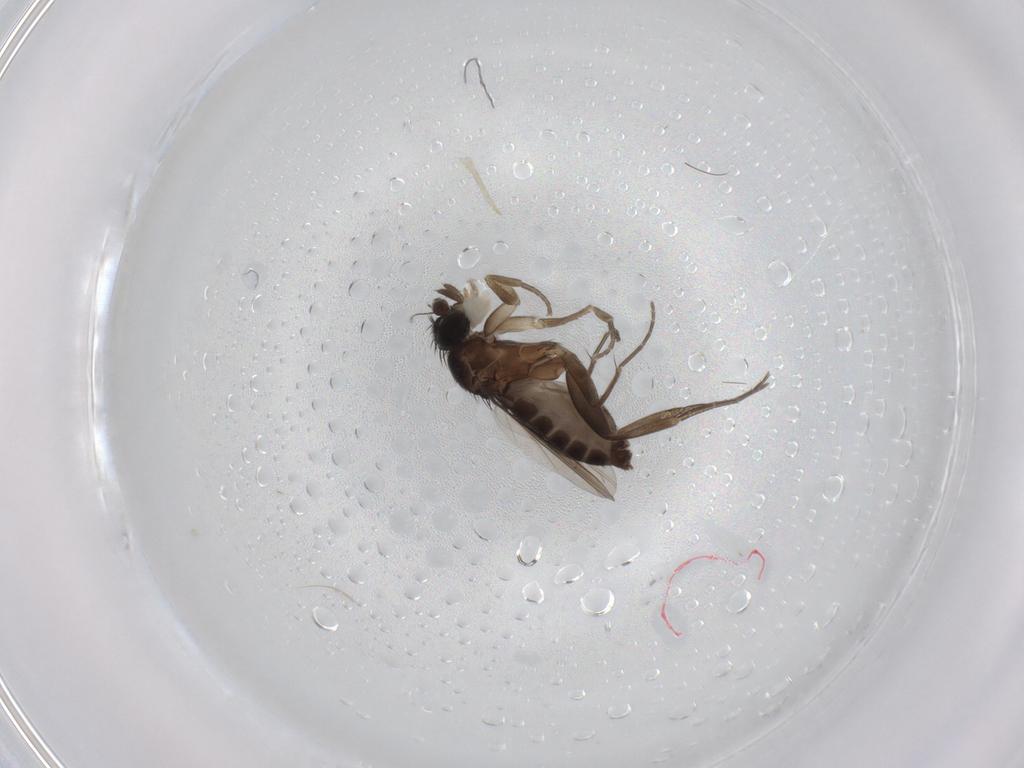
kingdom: Animalia
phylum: Arthropoda
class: Insecta
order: Diptera
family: Phoridae
